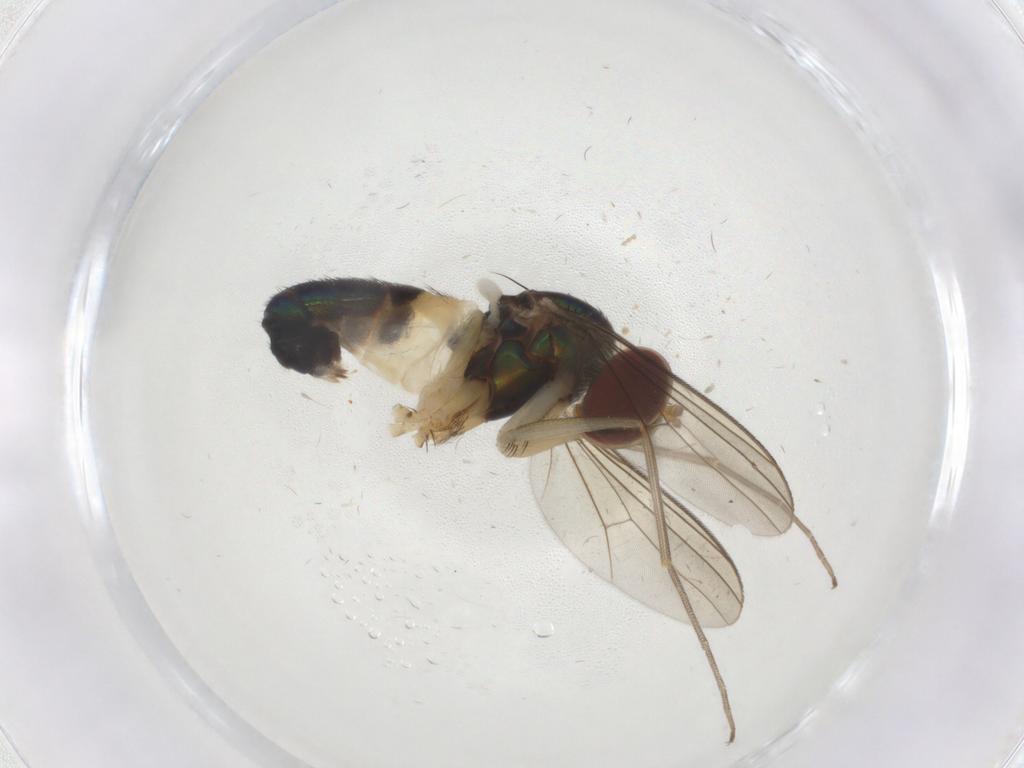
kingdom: Animalia
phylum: Arthropoda
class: Insecta
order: Diptera
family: Dolichopodidae
